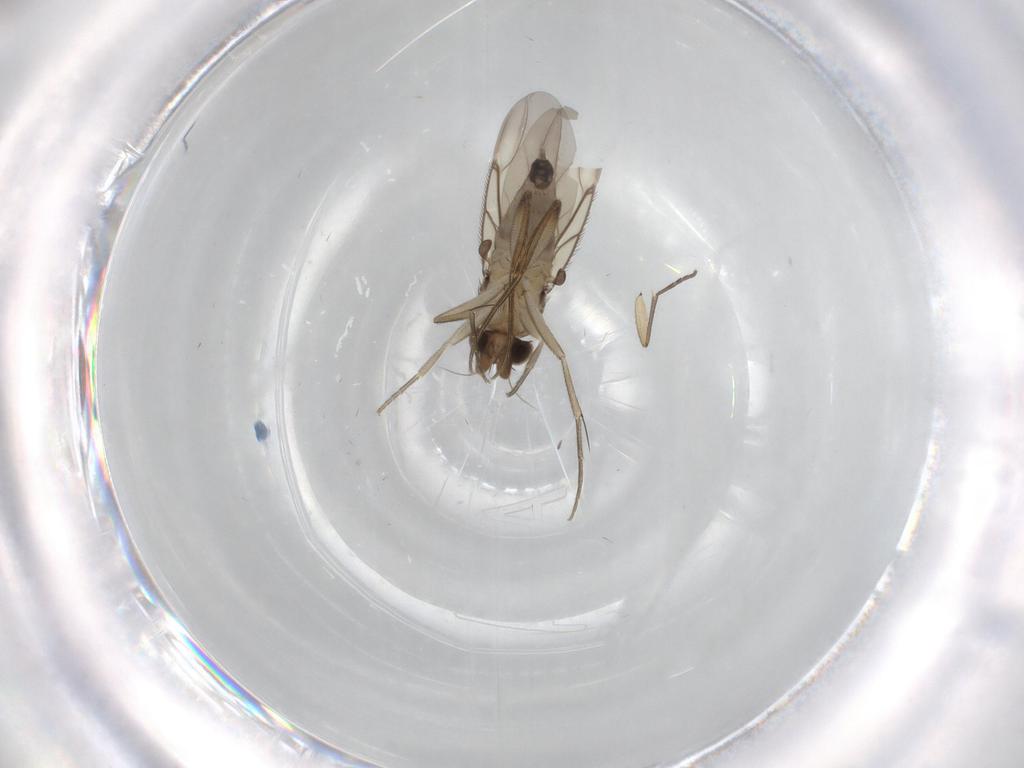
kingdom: Animalia
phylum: Arthropoda
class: Insecta
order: Diptera
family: Phoridae
